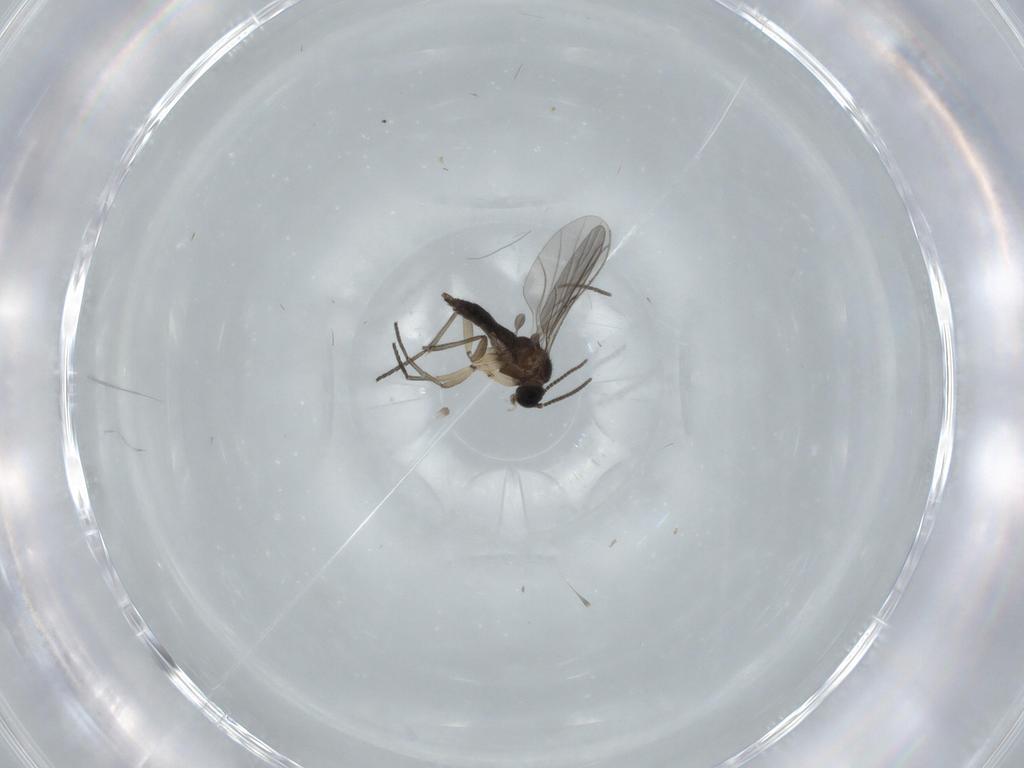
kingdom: Animalia
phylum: Arthropoda
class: Insecta
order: Diptera
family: Sciaridae
